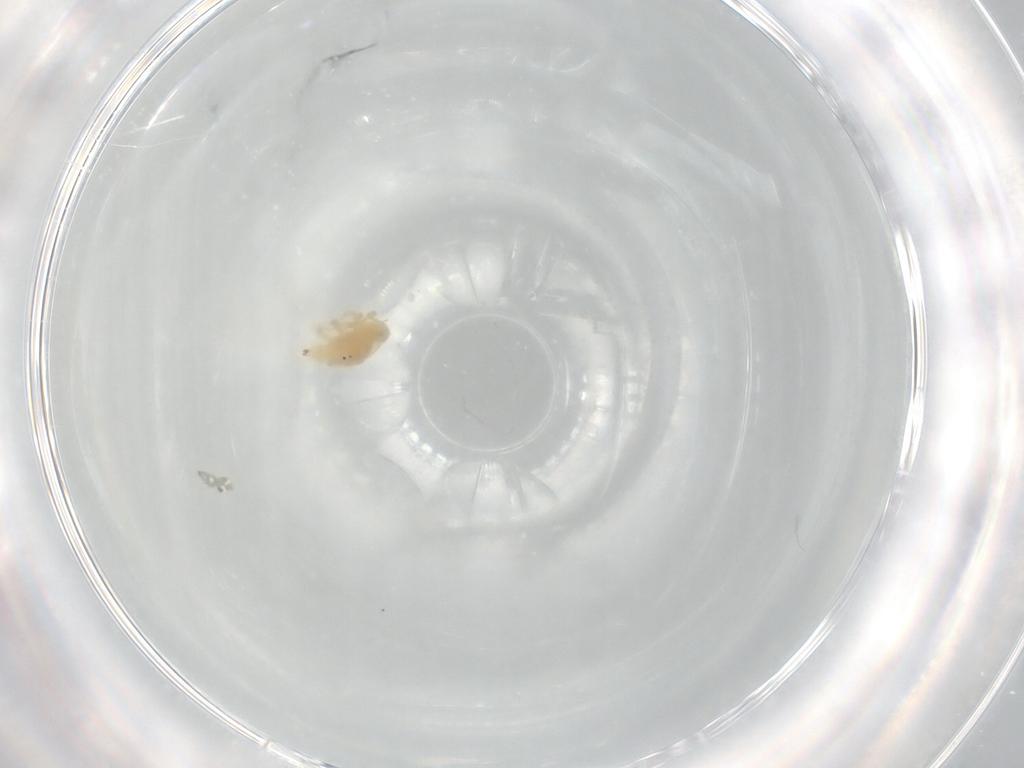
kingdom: Animalia
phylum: Arthropoda
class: Arachnida
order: Trombidiformes
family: Bdellidae
